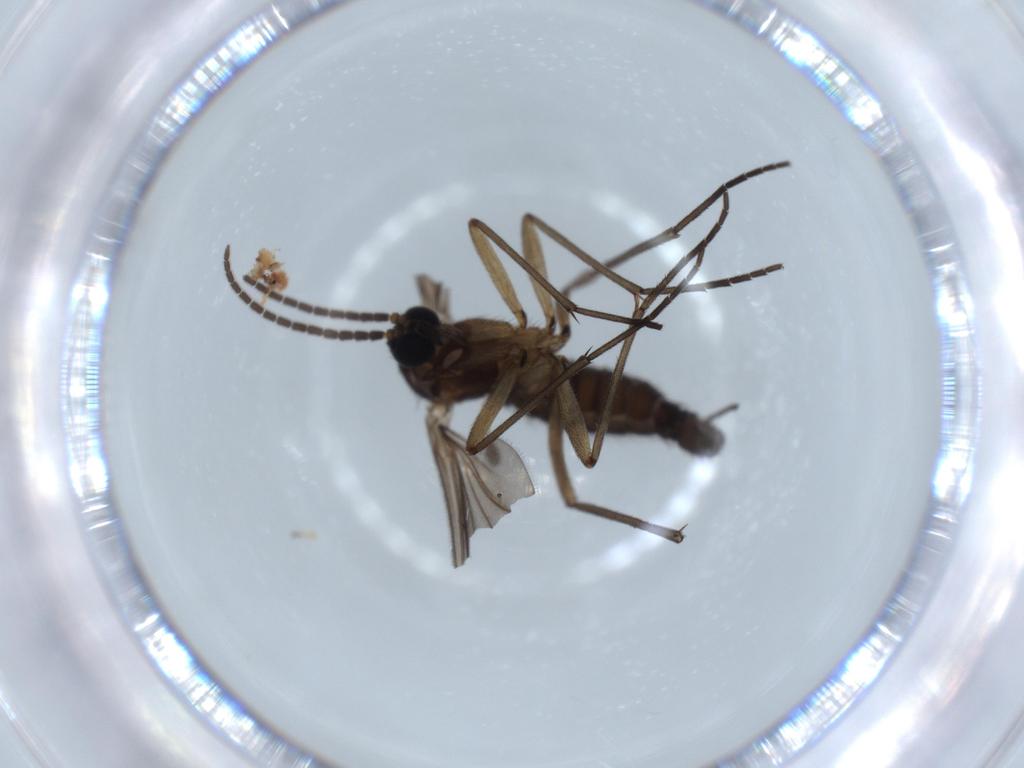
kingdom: Animalia
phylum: Arthropoda
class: Insecta
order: Diptera
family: Sciaridae
